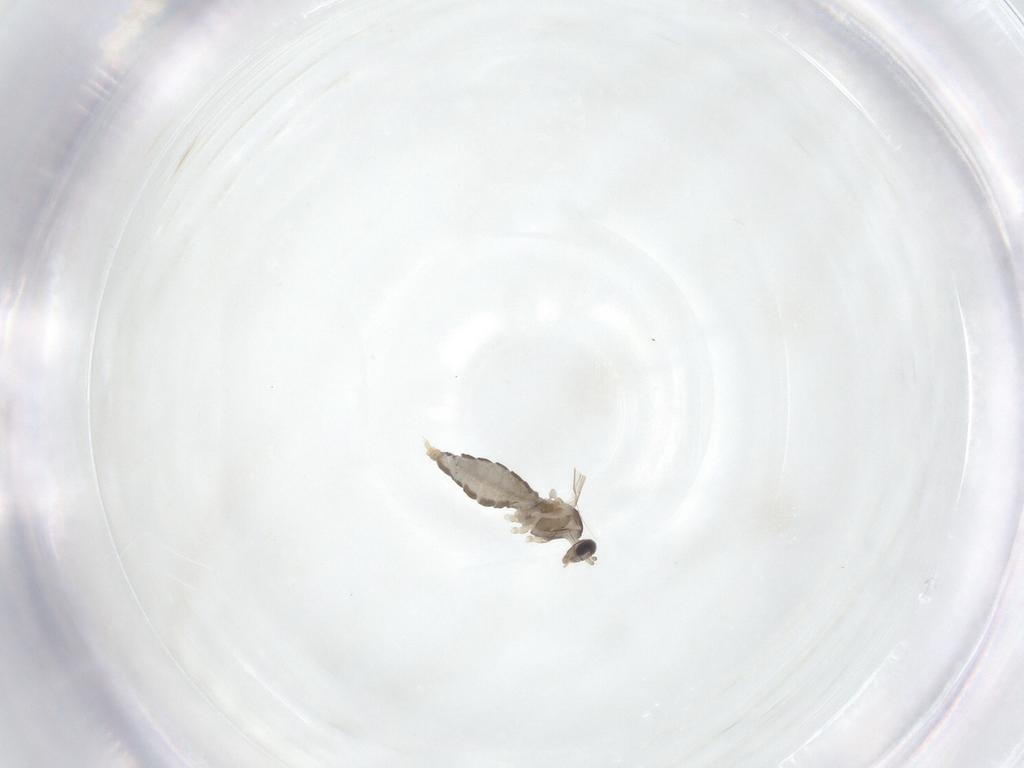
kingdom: Animalia
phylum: Arthropoda
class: Insecta
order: Diptera
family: Cecidomyiidae
